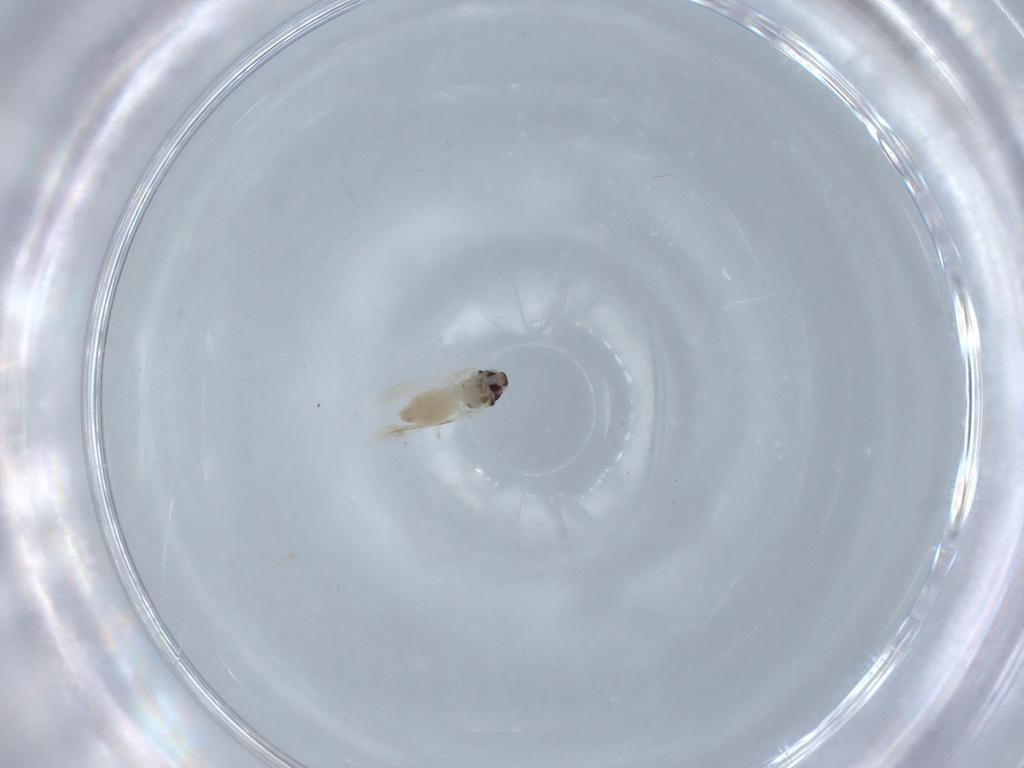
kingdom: Animalia
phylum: Arthropoda
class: Insecta
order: Hemiptera
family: Aleyrodidae
